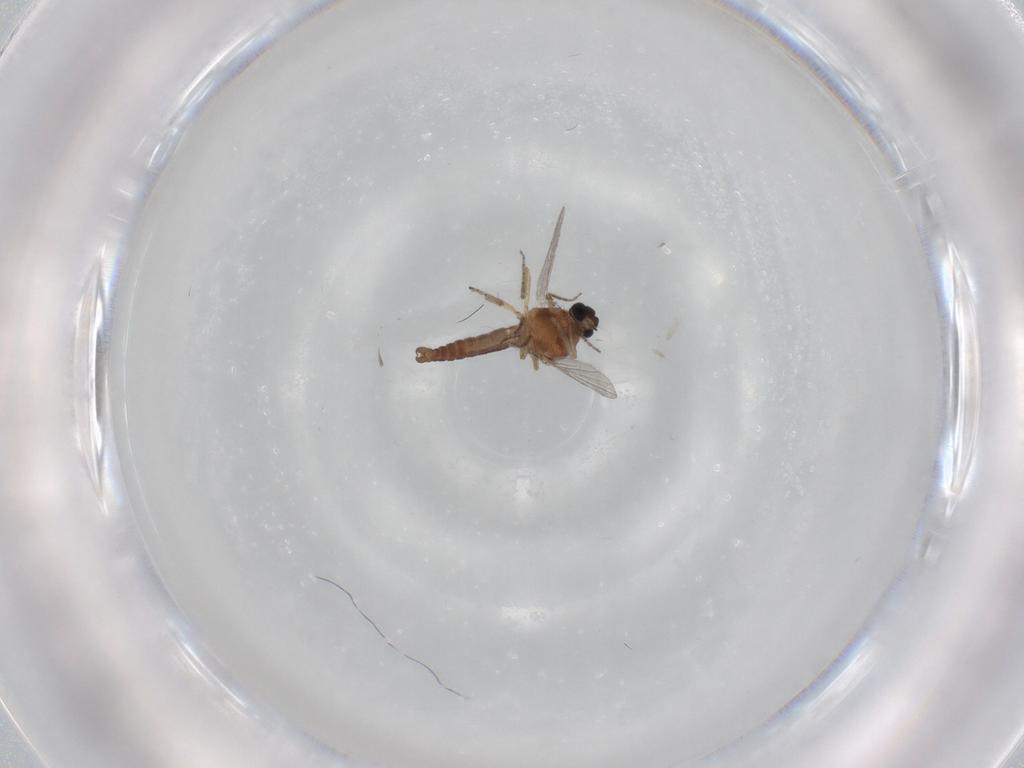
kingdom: Animalia
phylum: Arthropoda
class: Insecta
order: Diptera
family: Ceratopogonidae
